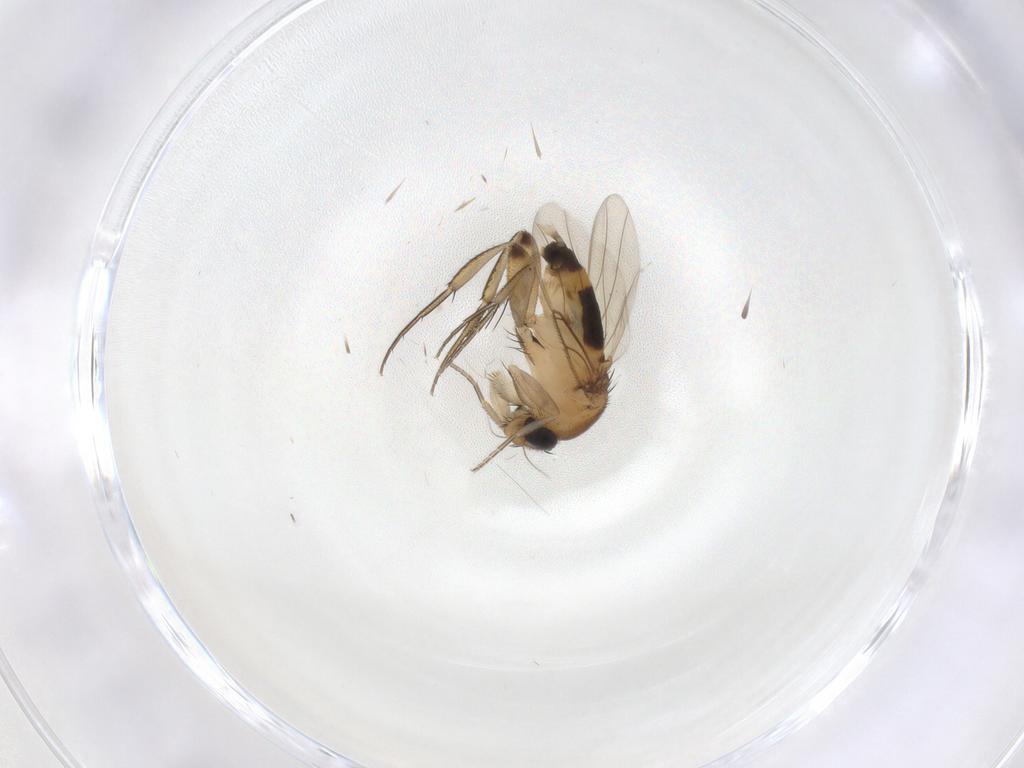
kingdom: Animalia
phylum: Arthropoda
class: Insecta
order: Diptera
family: Phoridae
